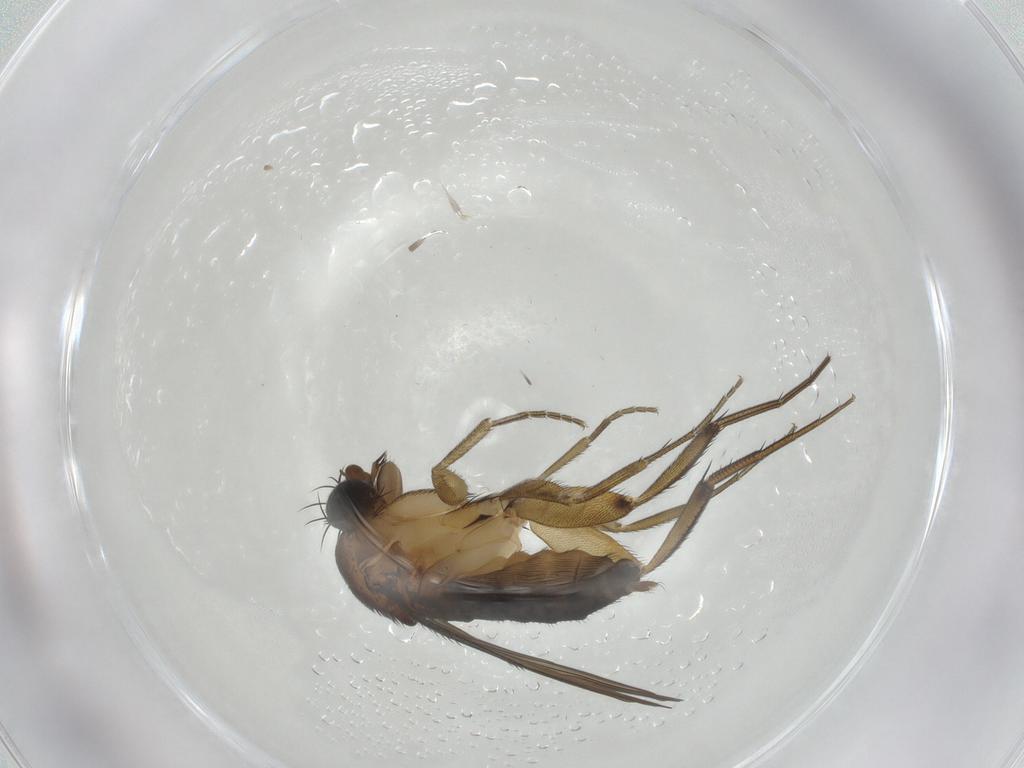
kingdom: Animalia
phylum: Arthropoda
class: Insecta
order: Diptera
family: Phoridae
